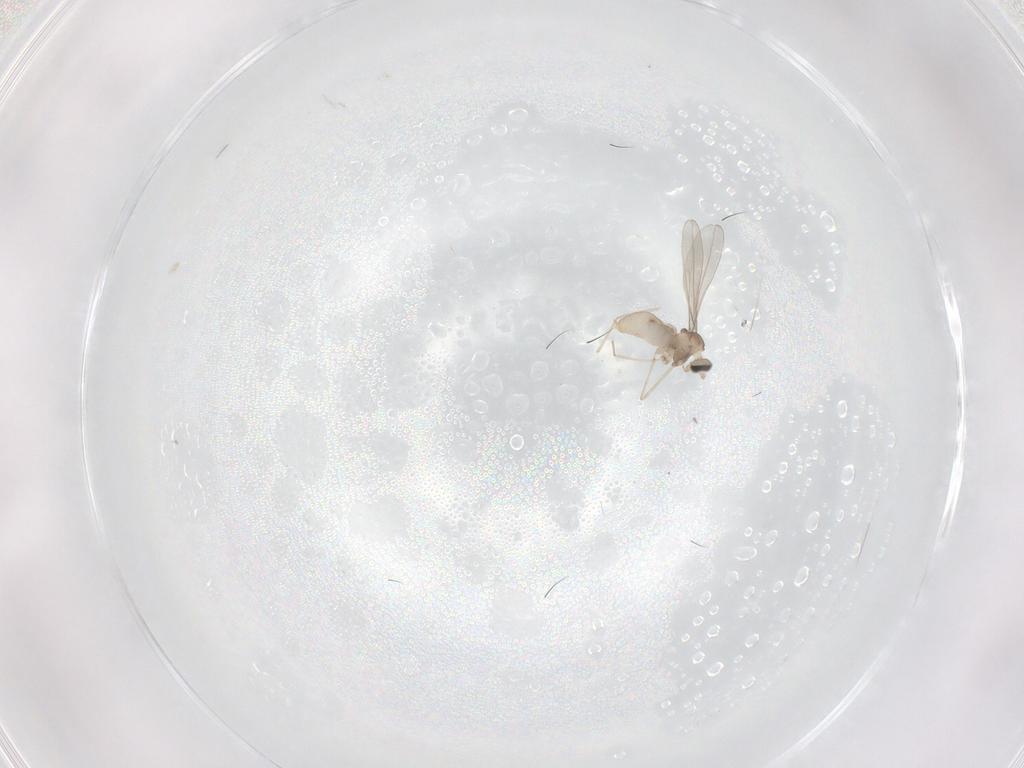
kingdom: Animalia
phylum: Arthropoda
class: Insecta
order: Diptera
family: Cecidomyiidae
